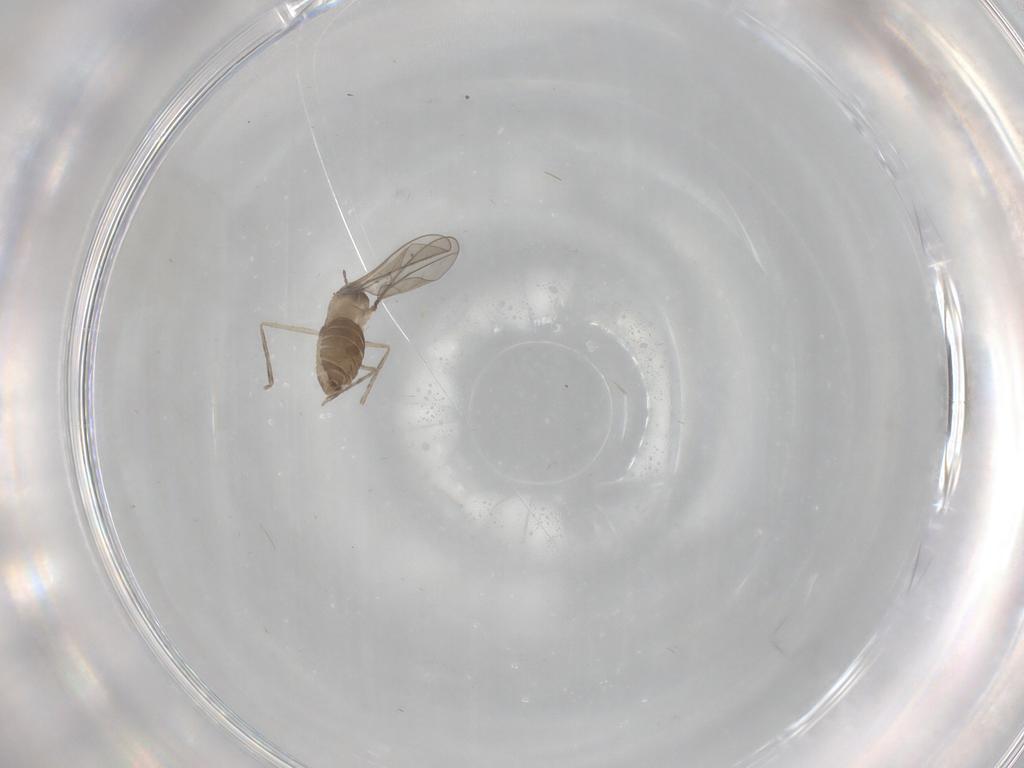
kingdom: Animalia
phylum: Arthropoda
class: Insecta
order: Diptera
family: Cecidomyiidae
